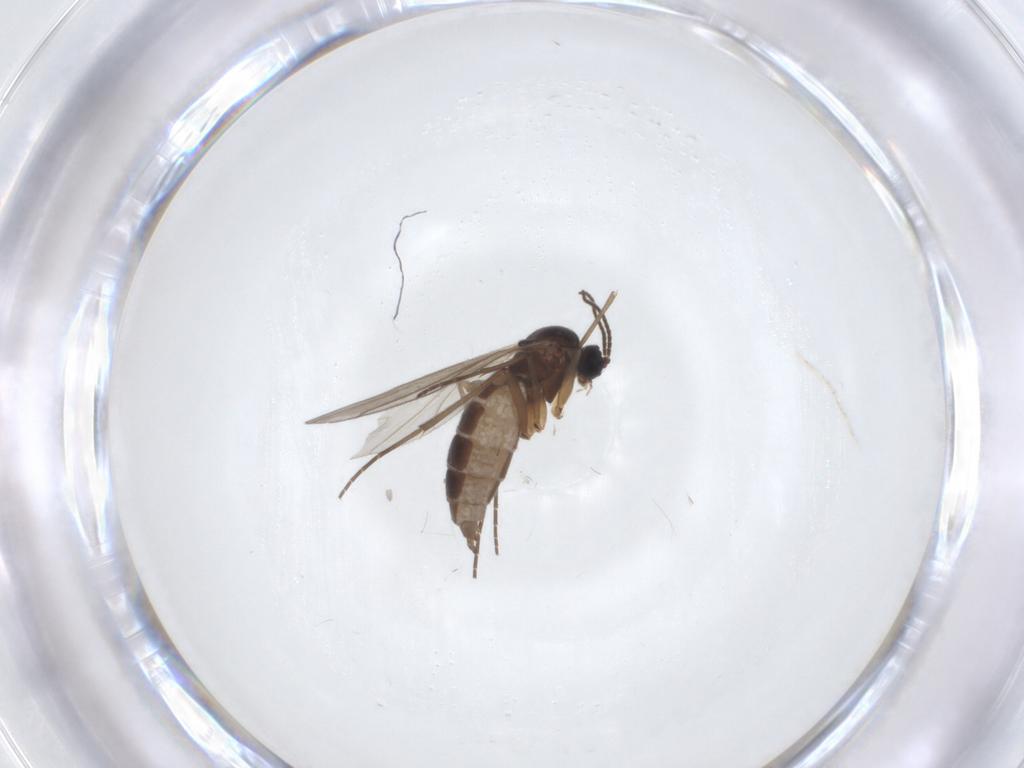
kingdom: Animalia
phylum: Arthropoda
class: Insecta
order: Diptera
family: Sciaridae
